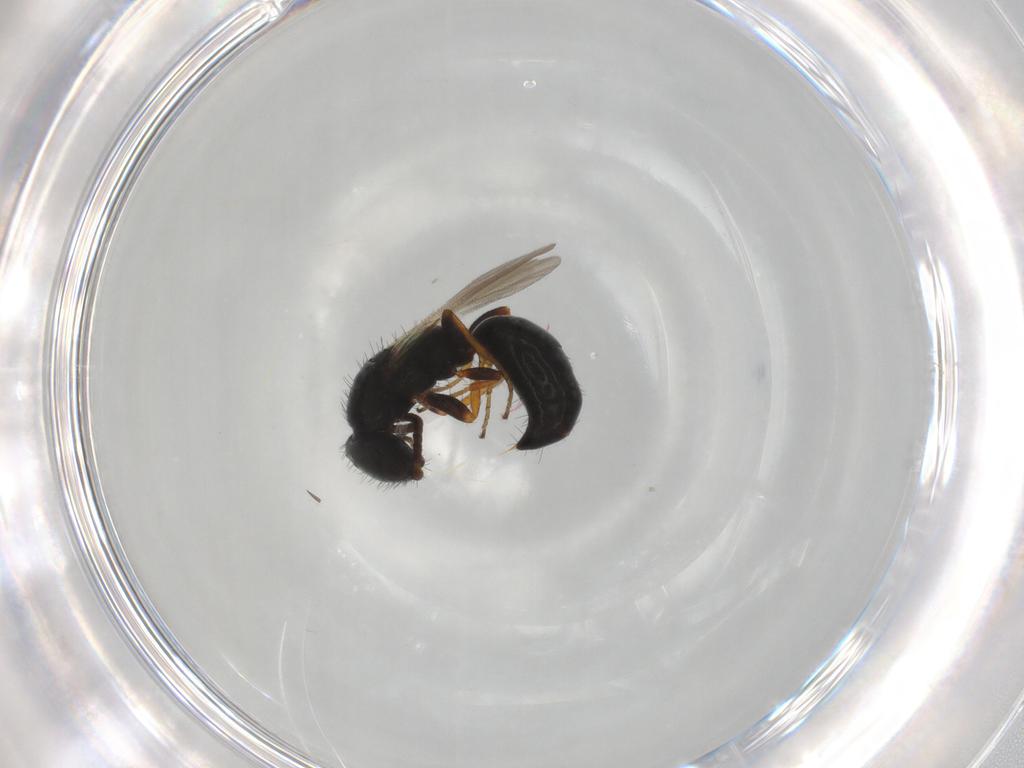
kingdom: Animalia
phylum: Arthropoda
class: Insecta
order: Hymenoptera
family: Bethylidae
